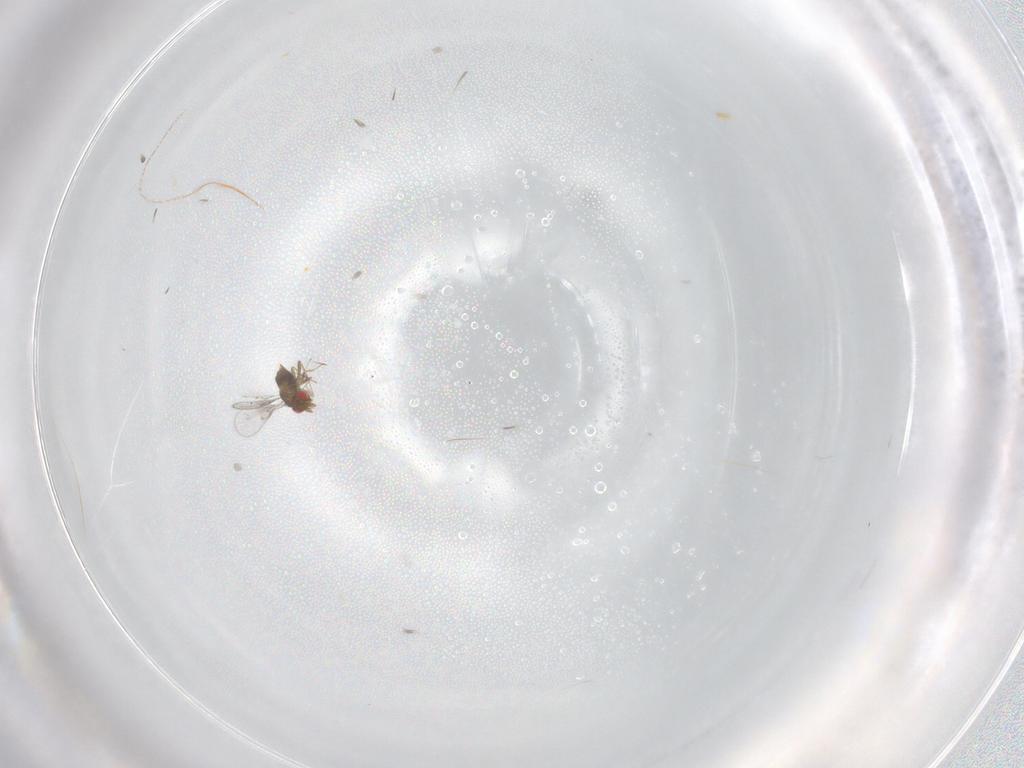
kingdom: Animalia
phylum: Arthropoda
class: Insecta
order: Hymenoptera
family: Trichogrammatidae
